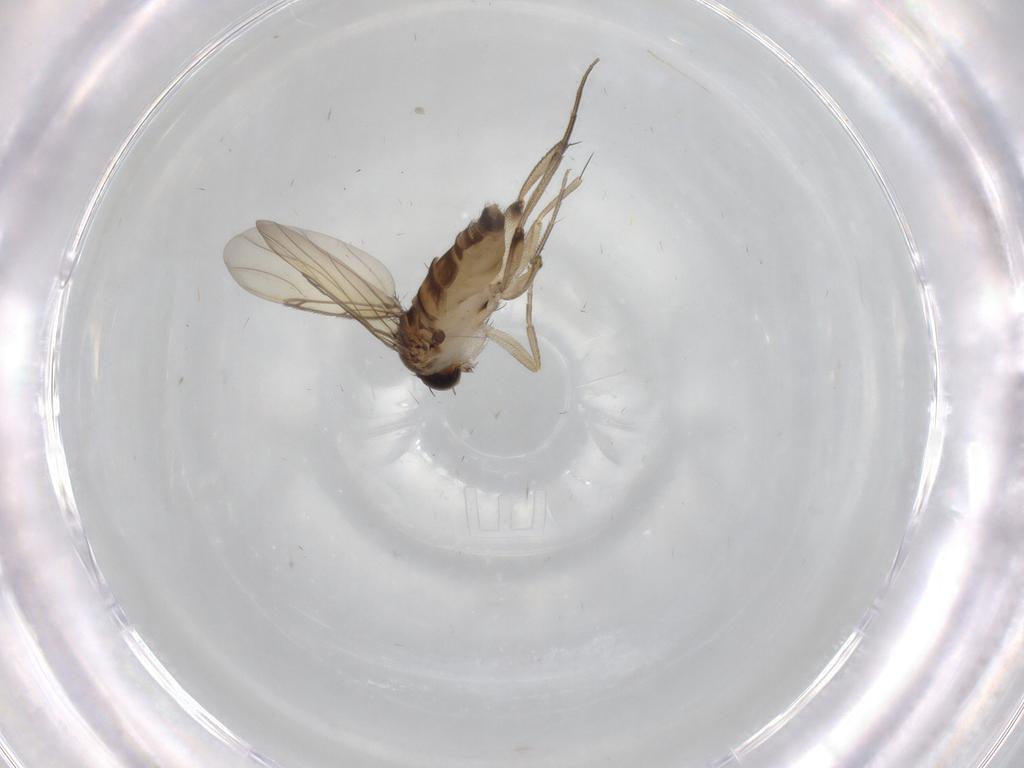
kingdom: Animalia
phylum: Arthropoda
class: Insecta
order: Diptera
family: Phoridae
